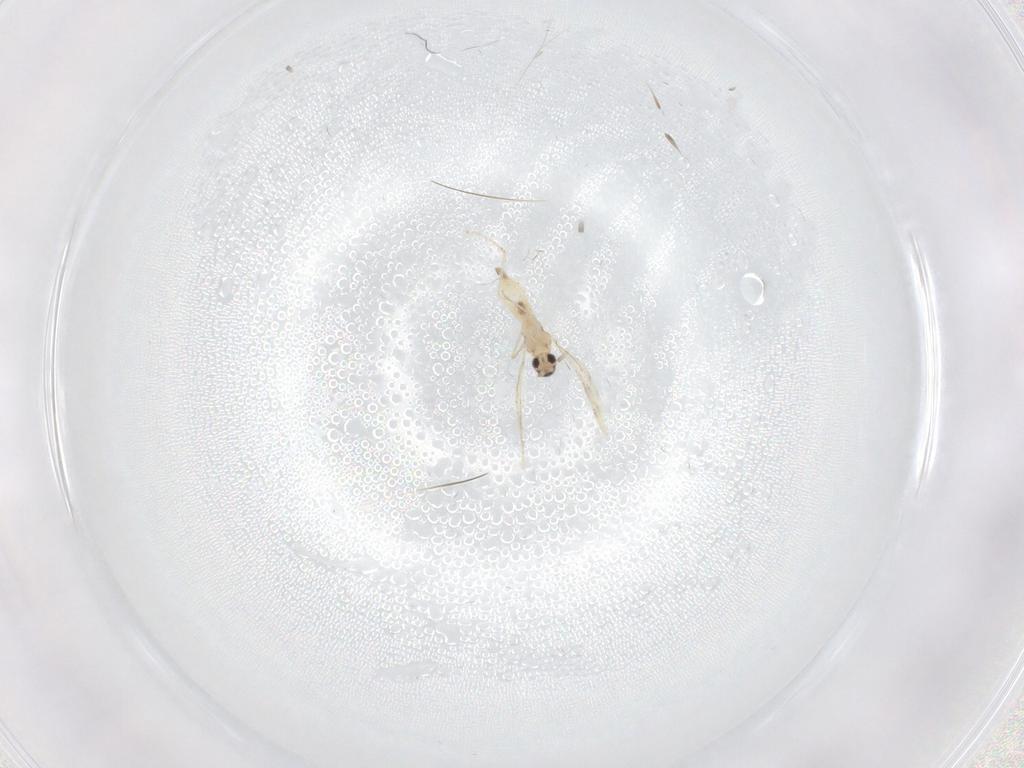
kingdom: Animalia
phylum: Arthropoda
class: Insecta
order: Diptera
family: Cecidomyiidae
